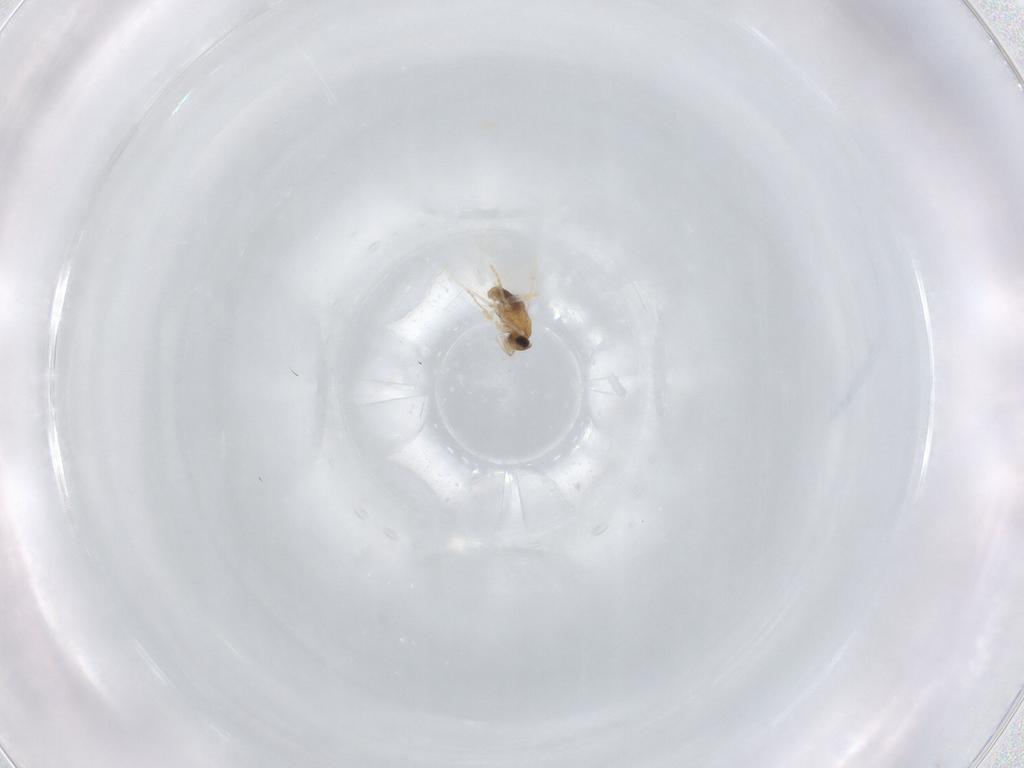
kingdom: Animalia
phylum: Arthropoda
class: Insecta
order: Diptera
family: Phoridae
